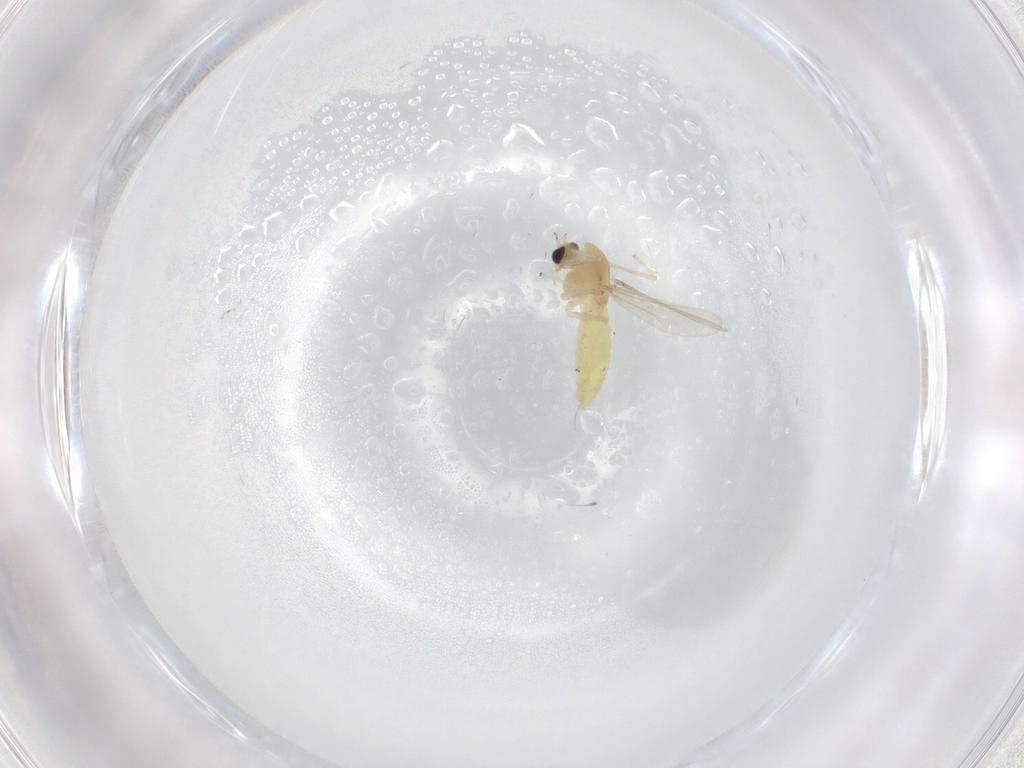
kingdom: Animalia
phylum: Arthropoda
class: Insecta
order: Diptera
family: Chironomidae
